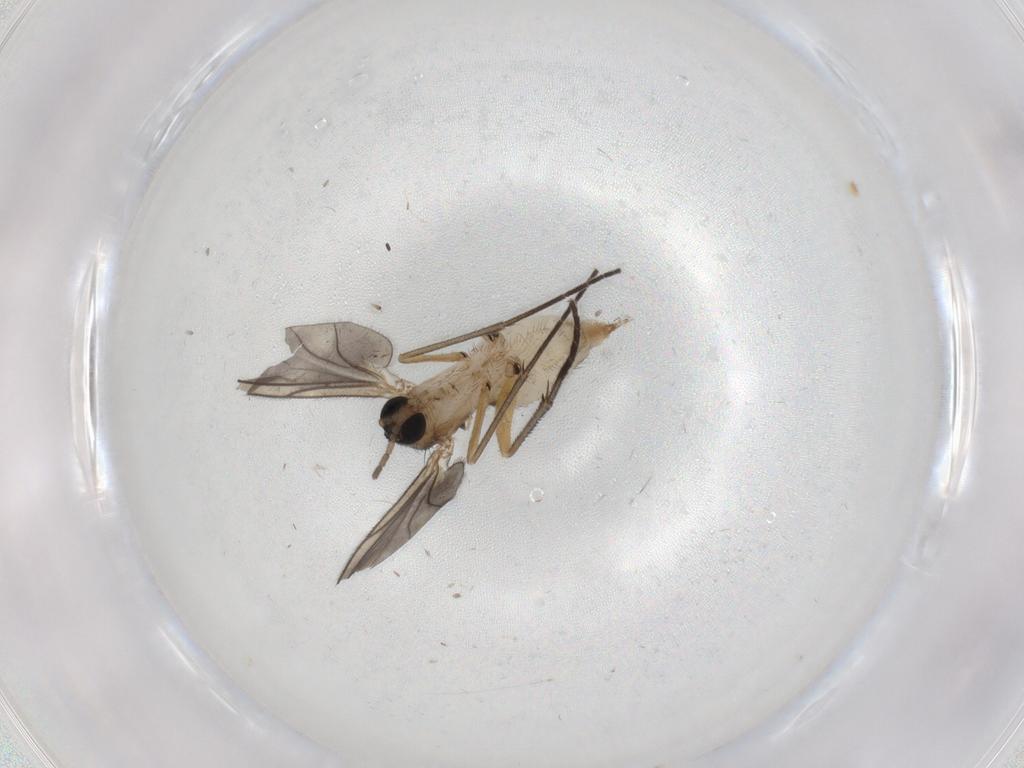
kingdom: Animalia
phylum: Arthropoda
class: Insecta
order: Diptera
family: Sciaridae
